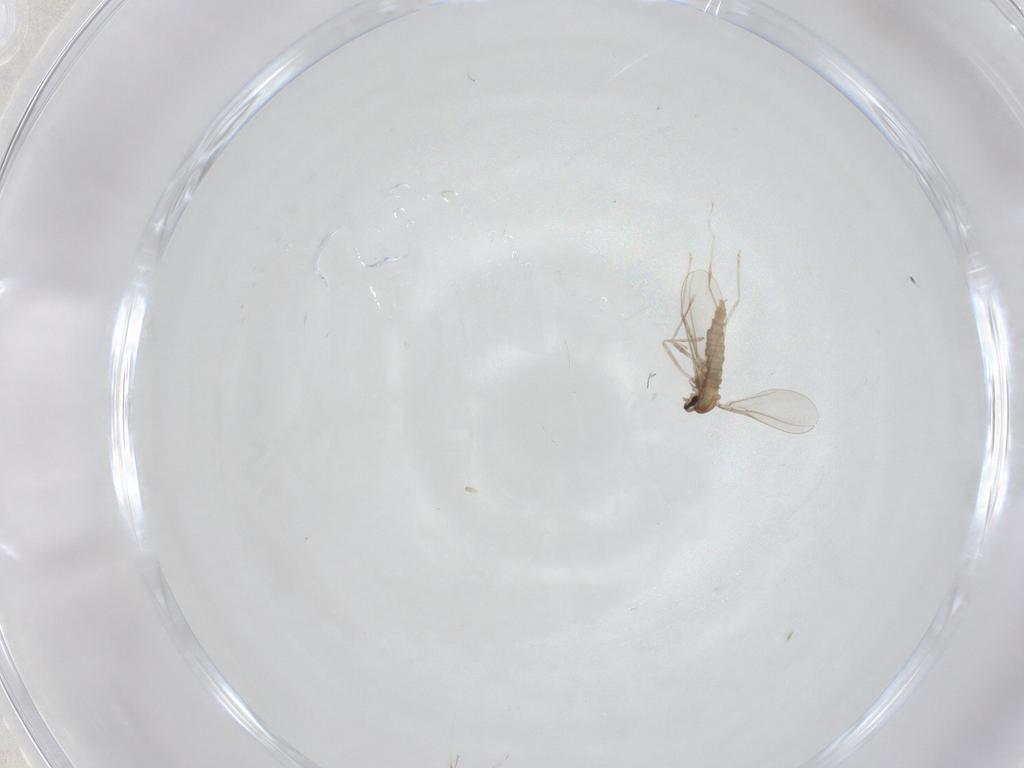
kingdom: Animalia
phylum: Arthropoda
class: Insecta
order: Diptera
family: Cecidomyiidae
